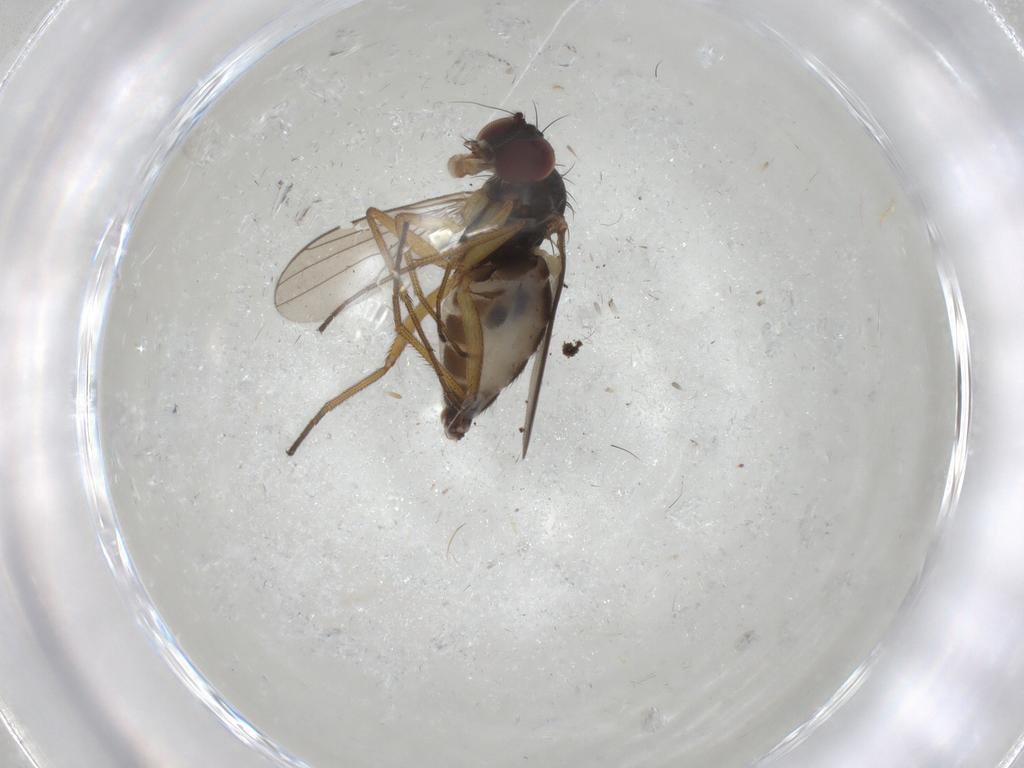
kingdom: Animalia
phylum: Arthropoda
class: Insecta
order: Diptera
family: Dolichopodidae
